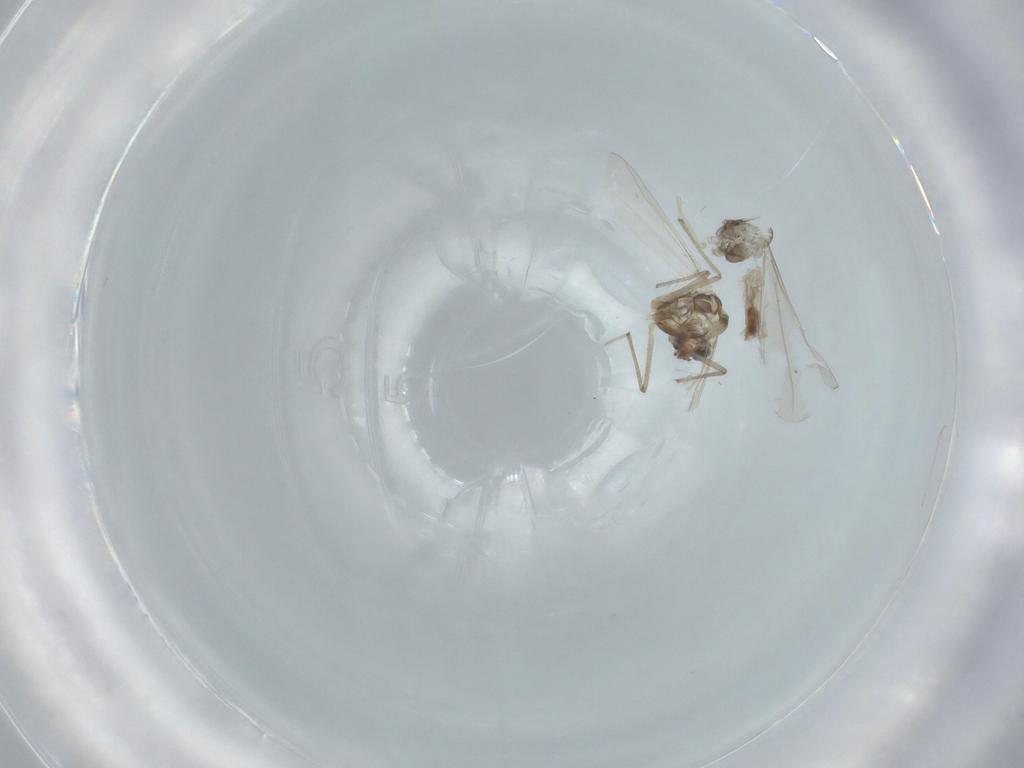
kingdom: Animalia
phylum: Arthropoda
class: Insecta
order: Diptera
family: Chironomidae
